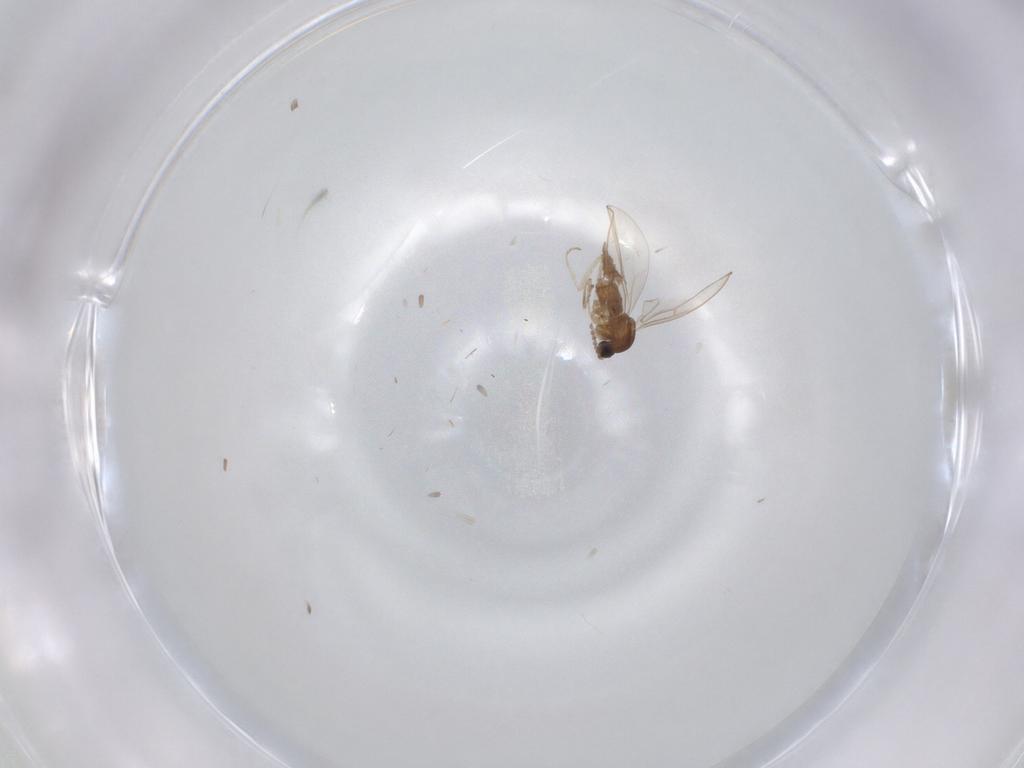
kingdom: Animalia
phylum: Arthropoda
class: Insecta
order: Diptera
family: Cecidomyiidae
